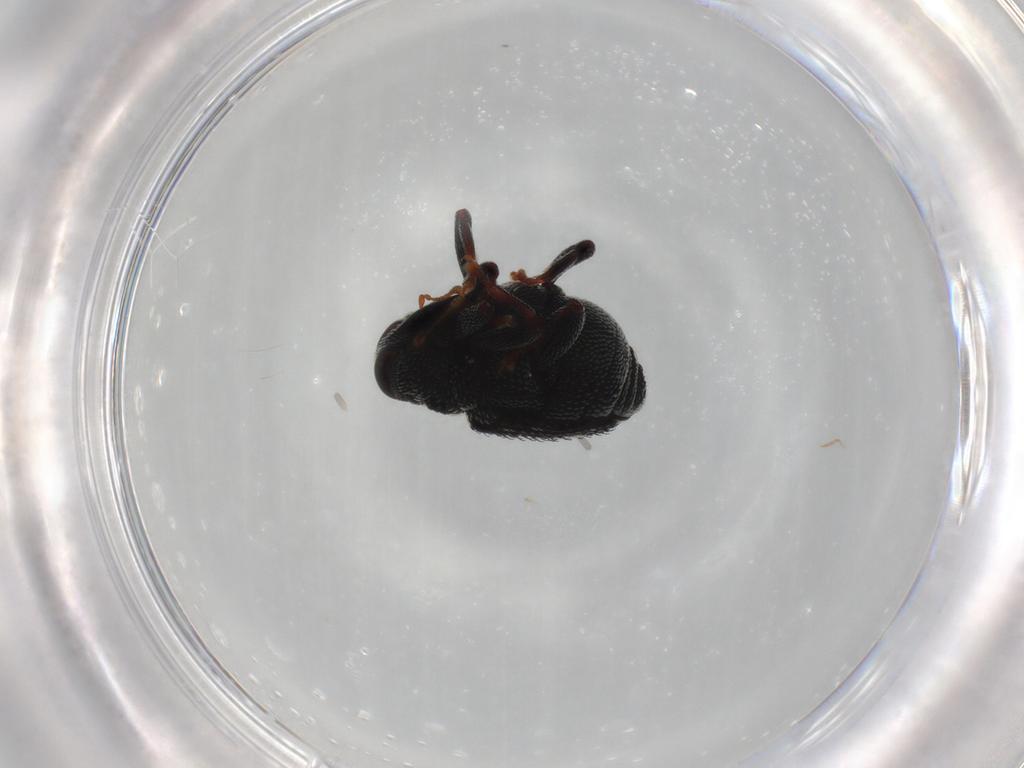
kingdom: Animalia
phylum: Arthropoda
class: Insecta
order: Coleoptera
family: Chrysomelidae
